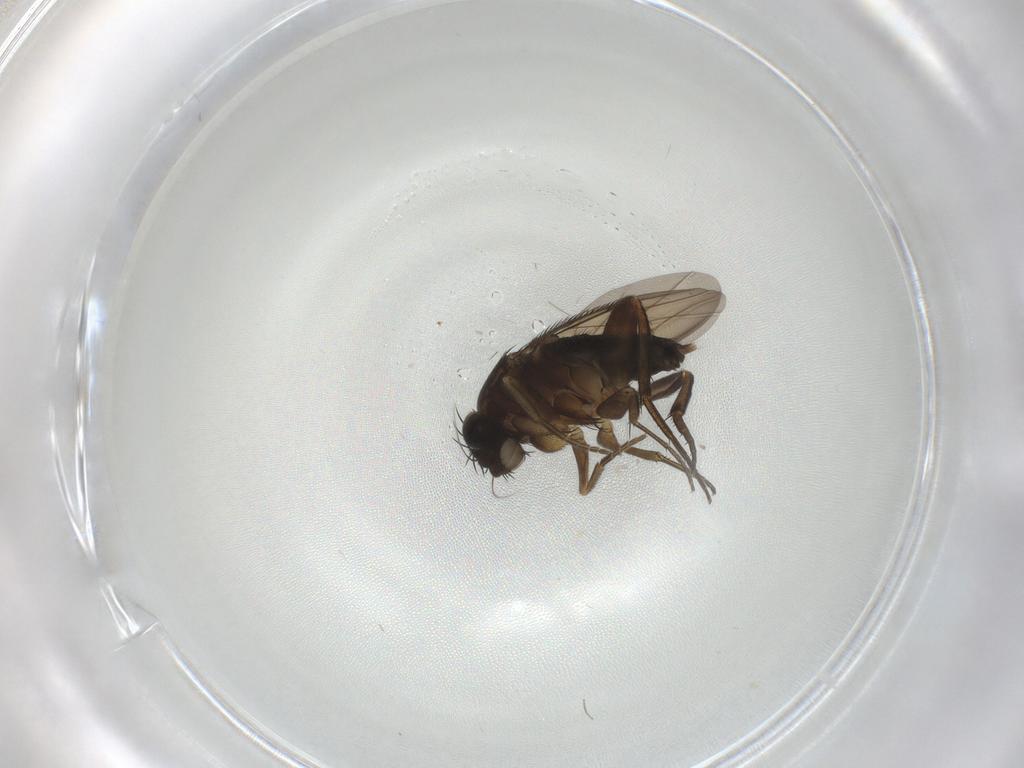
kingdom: Animalia
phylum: Arthropoda
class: Insecta
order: Diptera
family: Phoridae
